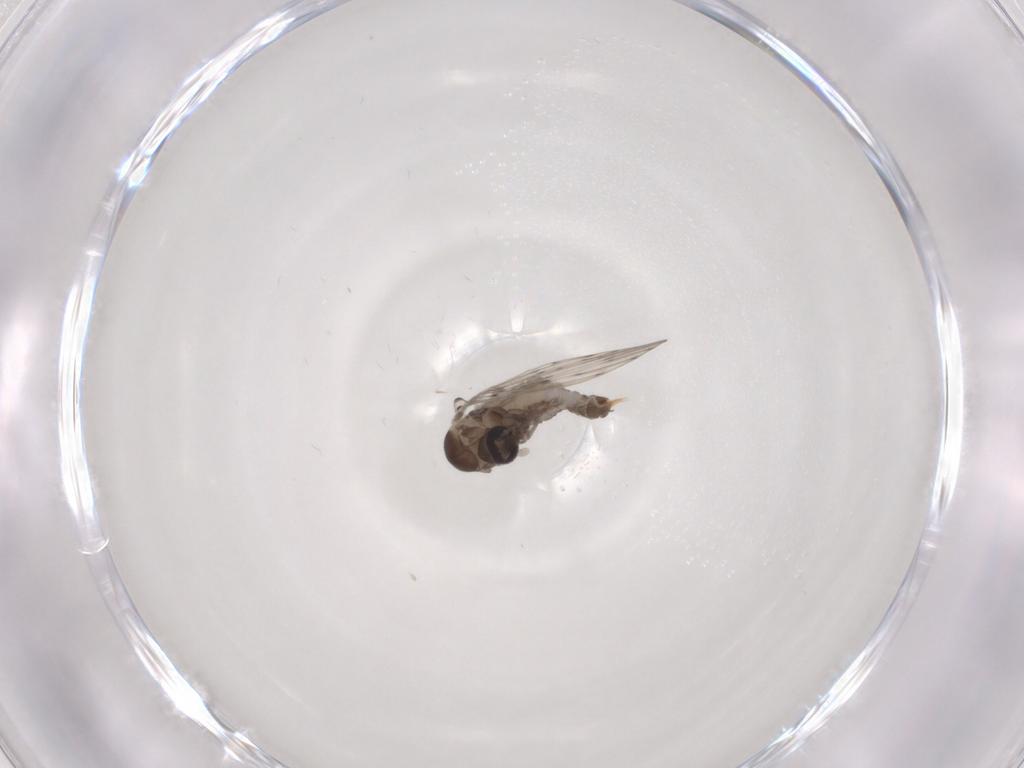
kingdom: Animalia
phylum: Arthropoda
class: Insecta
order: Diptera
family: Psychodidae
